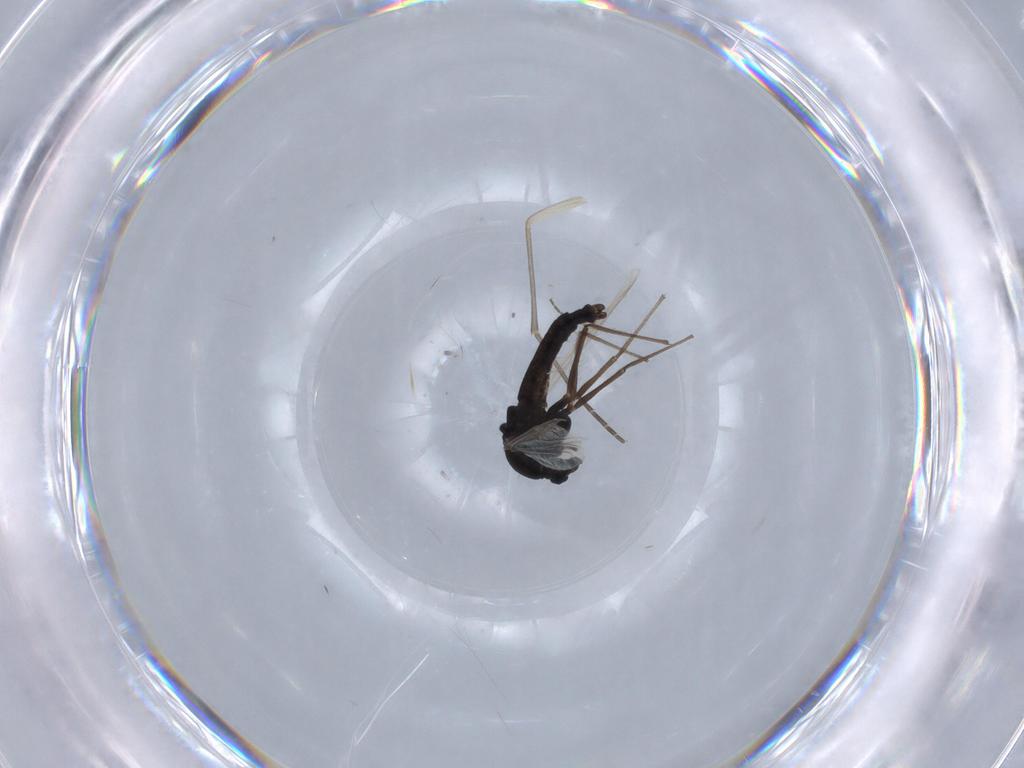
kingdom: Animalia
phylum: Arthropoda
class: Insecta
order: Diptera
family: Chironomidae
